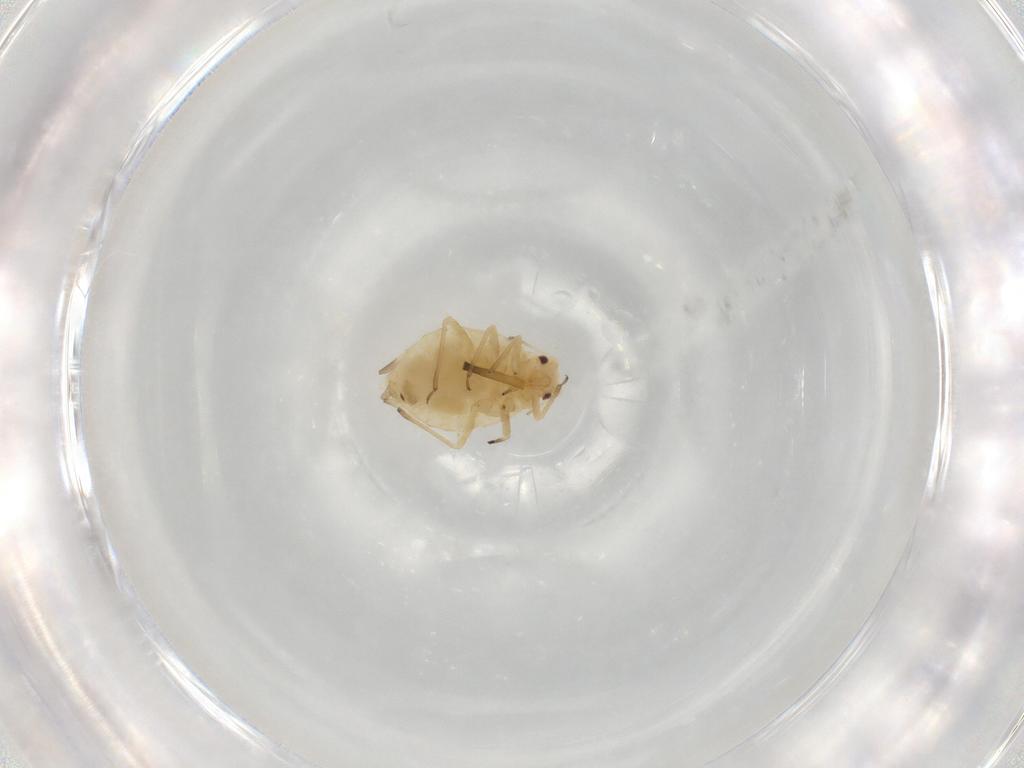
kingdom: Animalia
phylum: Arthropoda
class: Insecta
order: Hemiptera
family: Aphididae
